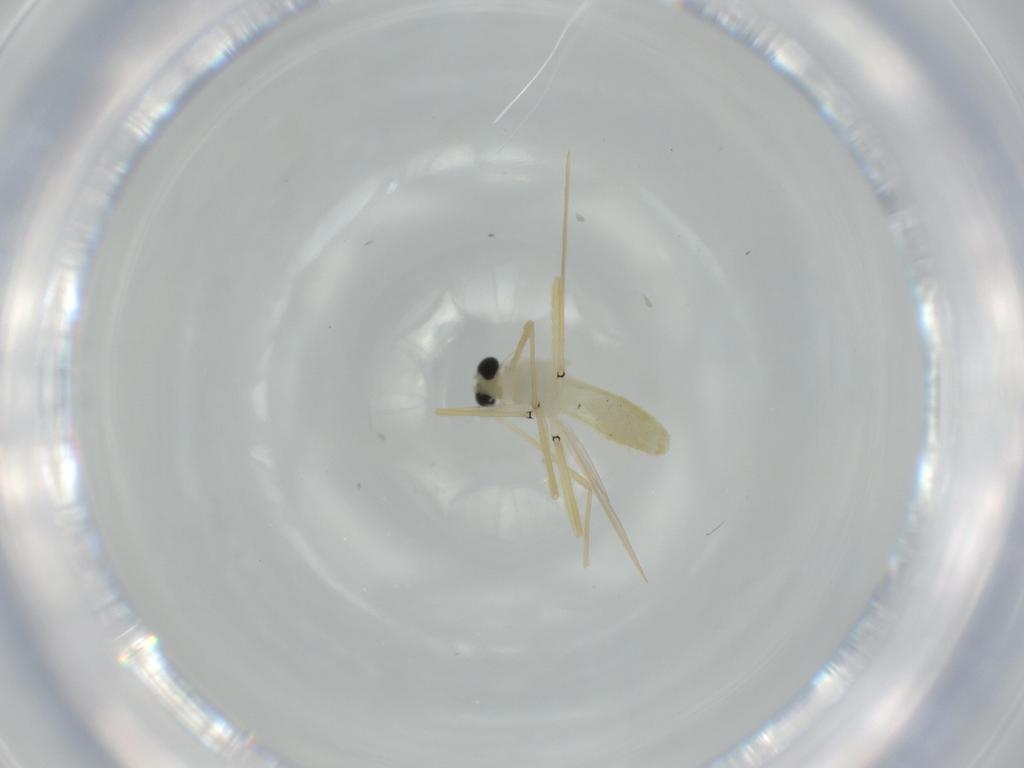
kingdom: Animalia
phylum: Arthropoda
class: Insecta
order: Diptera
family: Chironomidae
